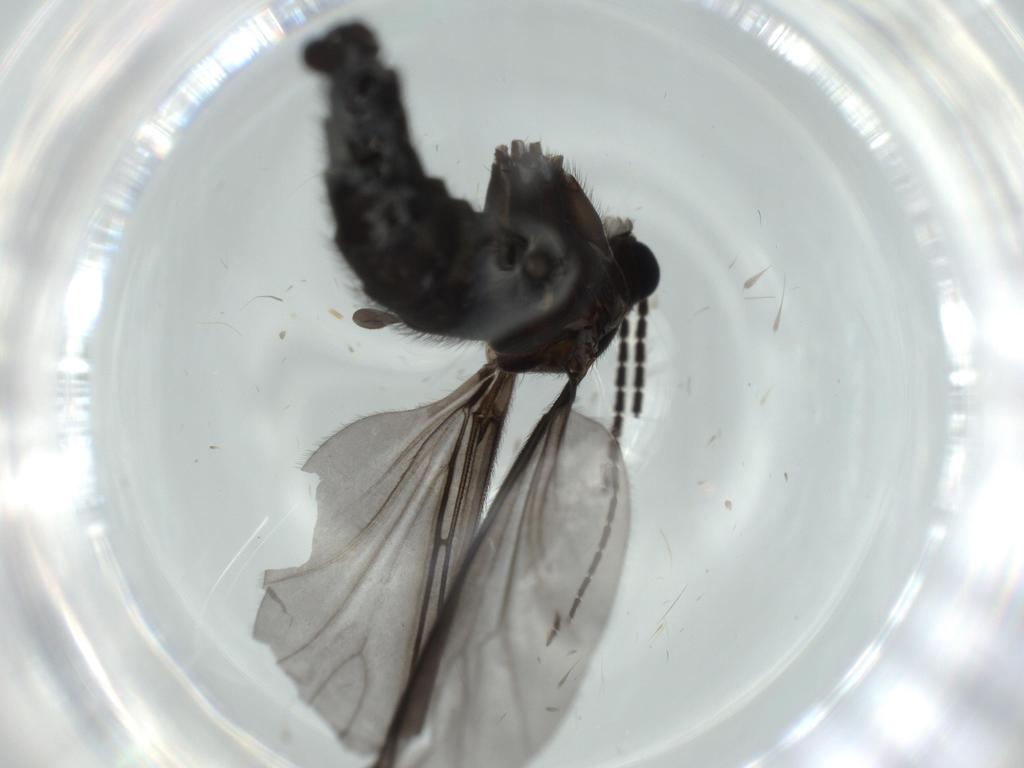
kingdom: Animalia
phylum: Arthropoda
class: Insecta
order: Diptera
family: Sciaridae
